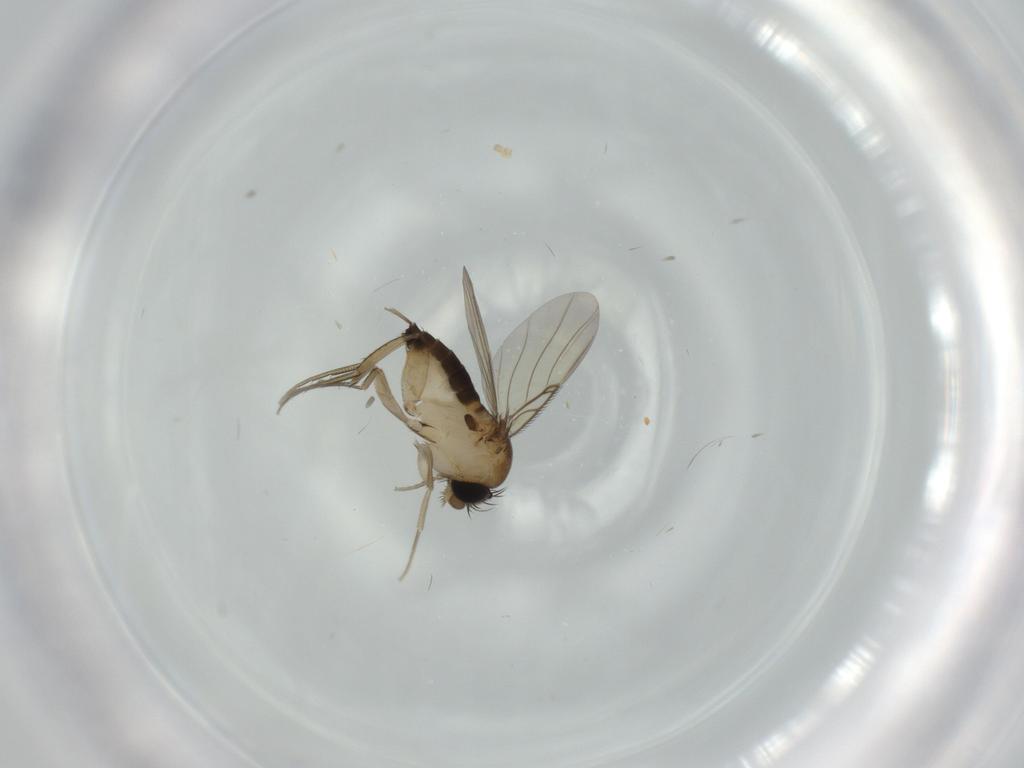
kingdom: Animalia
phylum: Arthropoda
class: Insecta
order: Diptera
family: Phoridae
